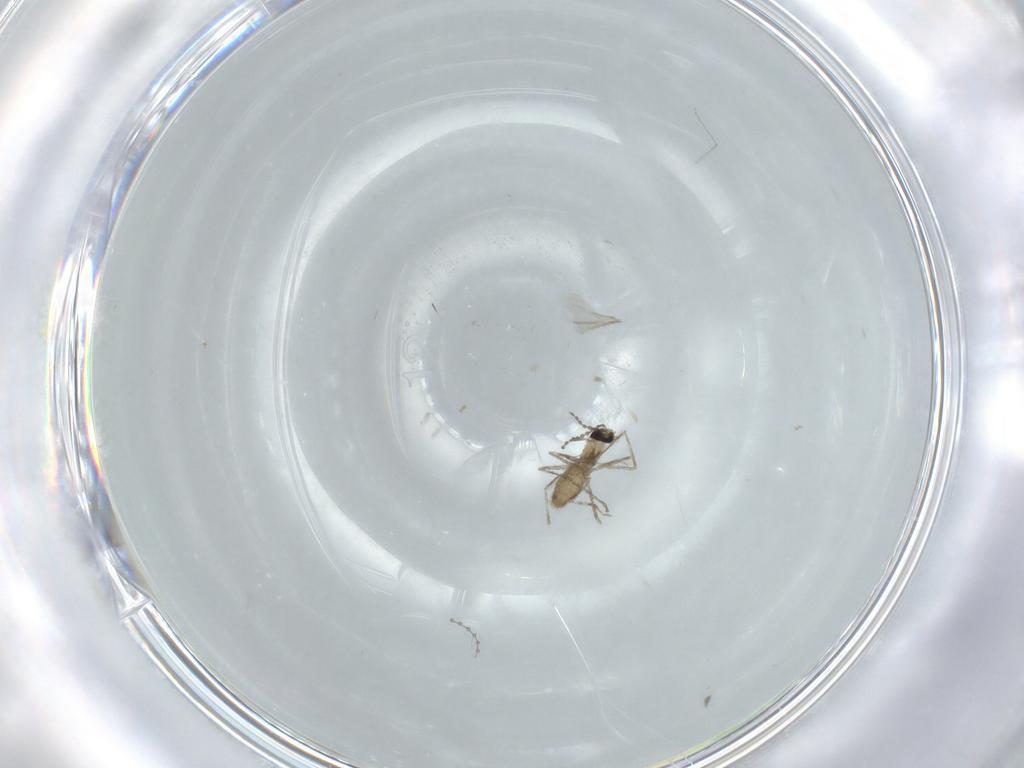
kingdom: Animalia
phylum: Arthropoda
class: Insecta
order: Diptera
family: Cecidomyiidae
